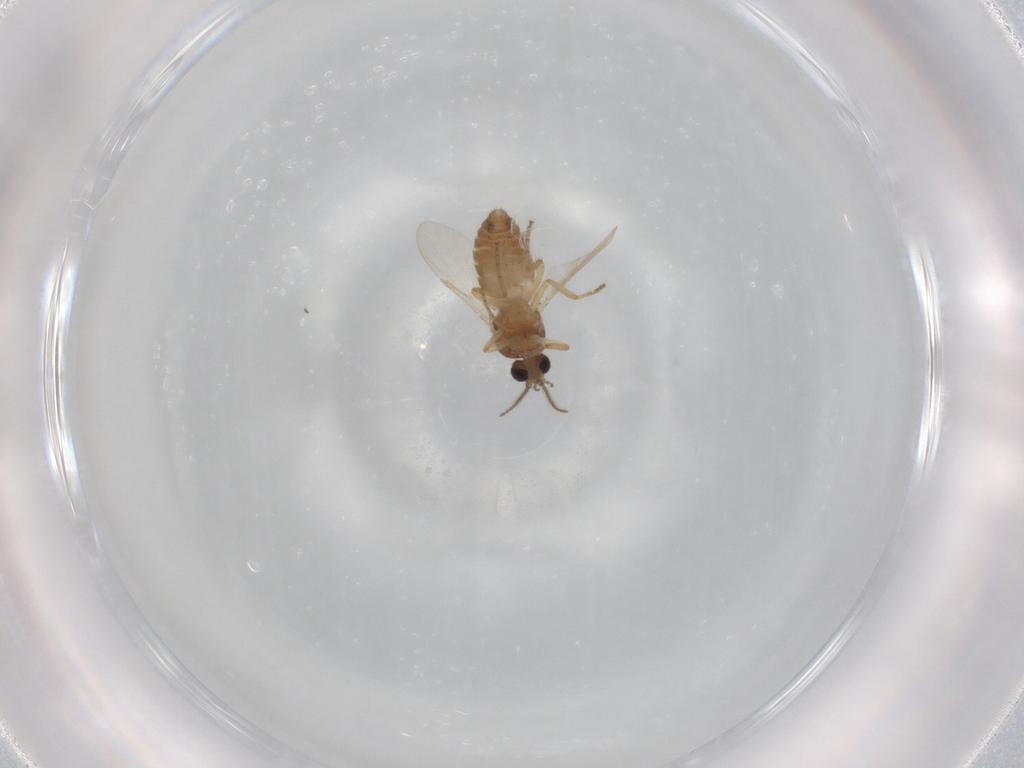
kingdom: Animalia
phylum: Arthropoda
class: Insecta
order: Diptera
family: Ceratopogonidae
